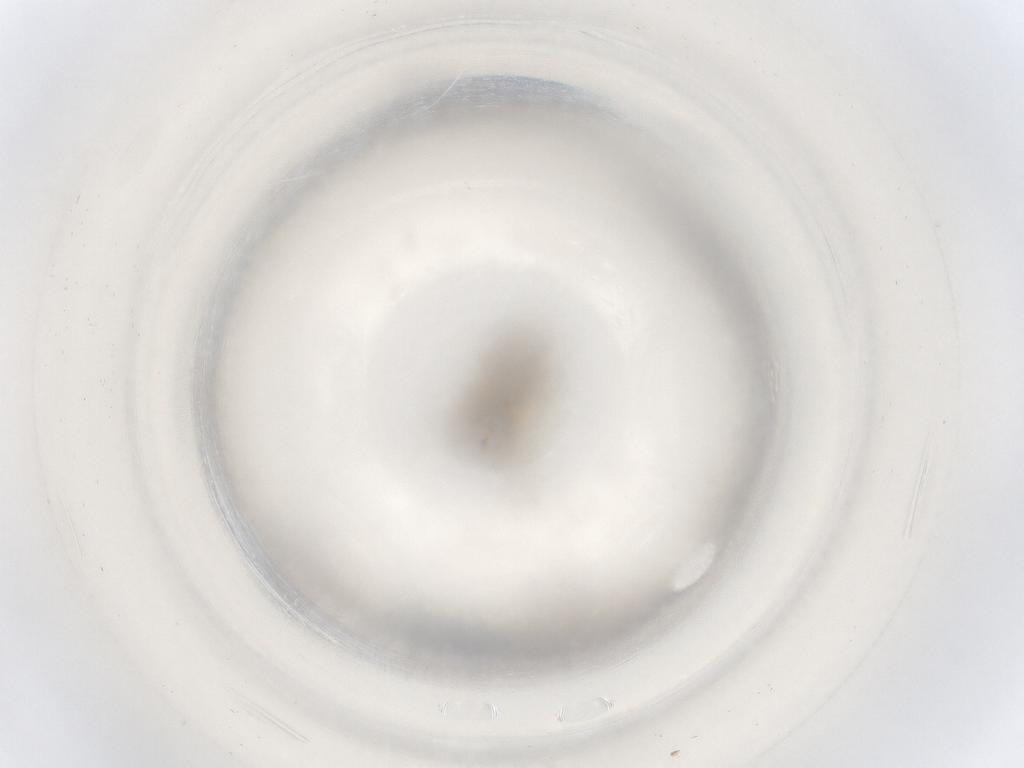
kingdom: Animalia
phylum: Arthropoda
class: Insecta
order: Diptera
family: Ceratopogonidae
